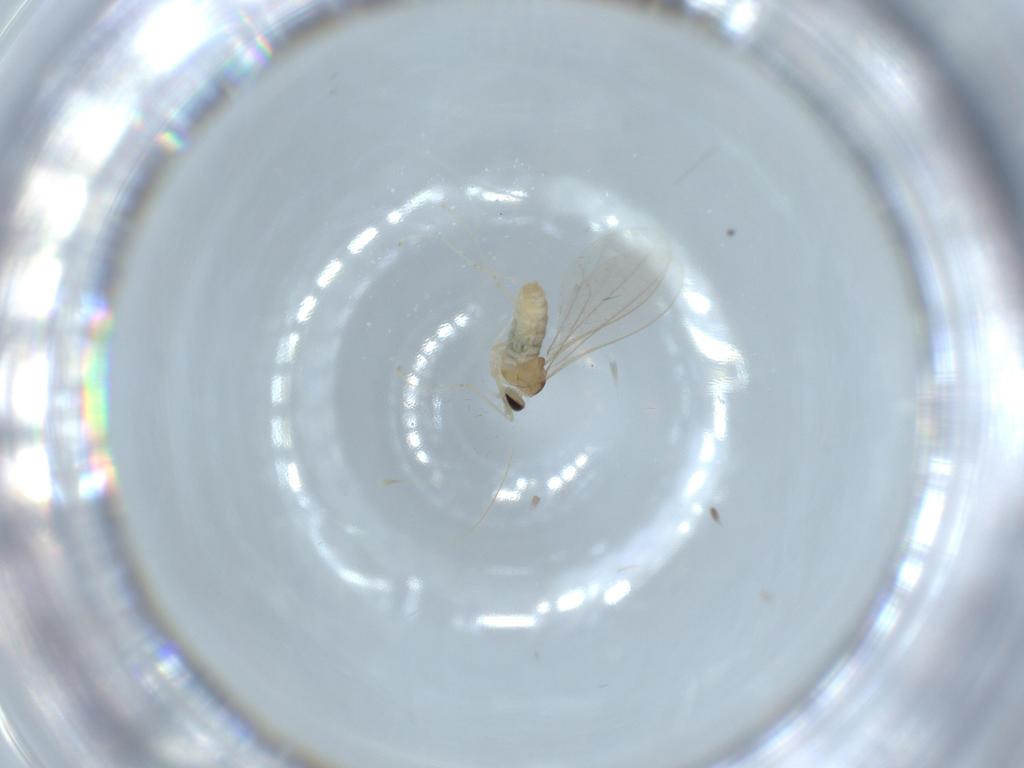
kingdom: Animalia
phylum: Arthropoda
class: Insecta
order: Diptera
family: Cecidomyiidae
